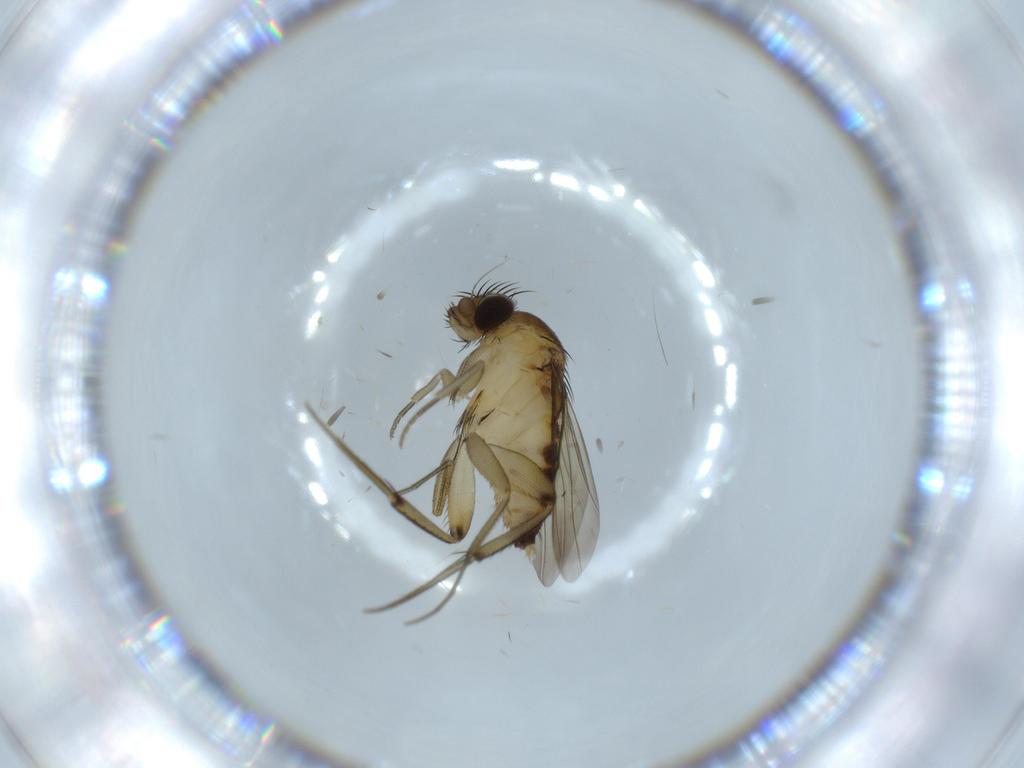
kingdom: Animalia
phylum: Arthropoda
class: Insecta
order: Diptera
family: Phoridae
